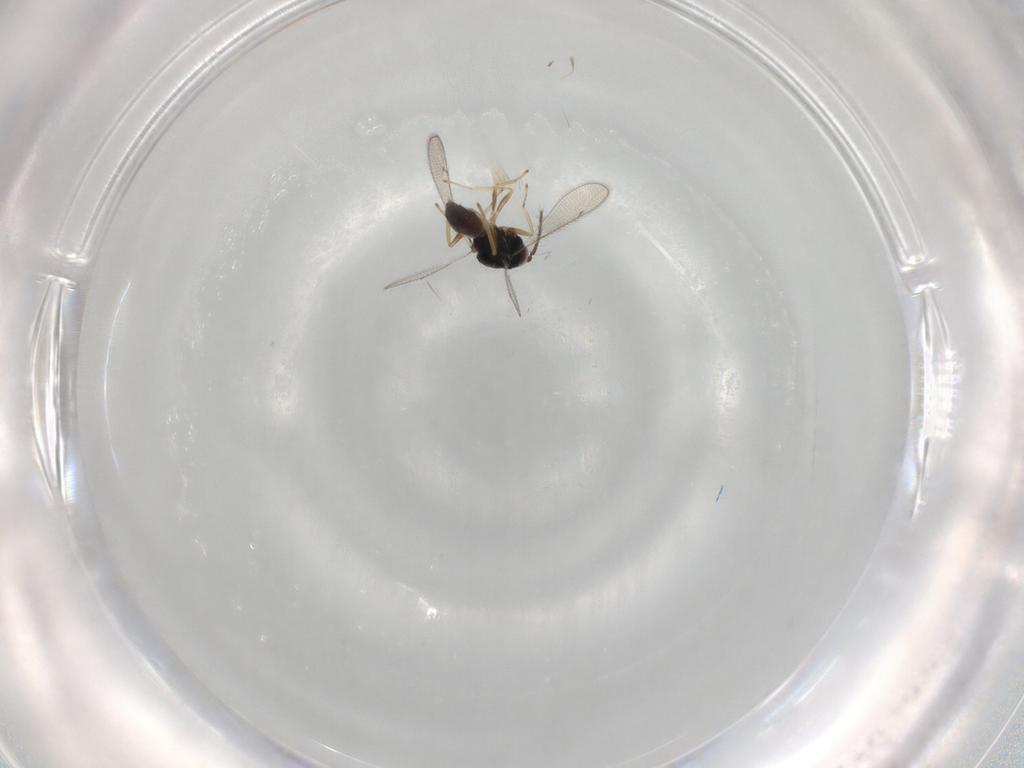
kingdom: Animalia
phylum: Arthropoda
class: Insecta
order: Hymenoptera
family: Eulophidae
